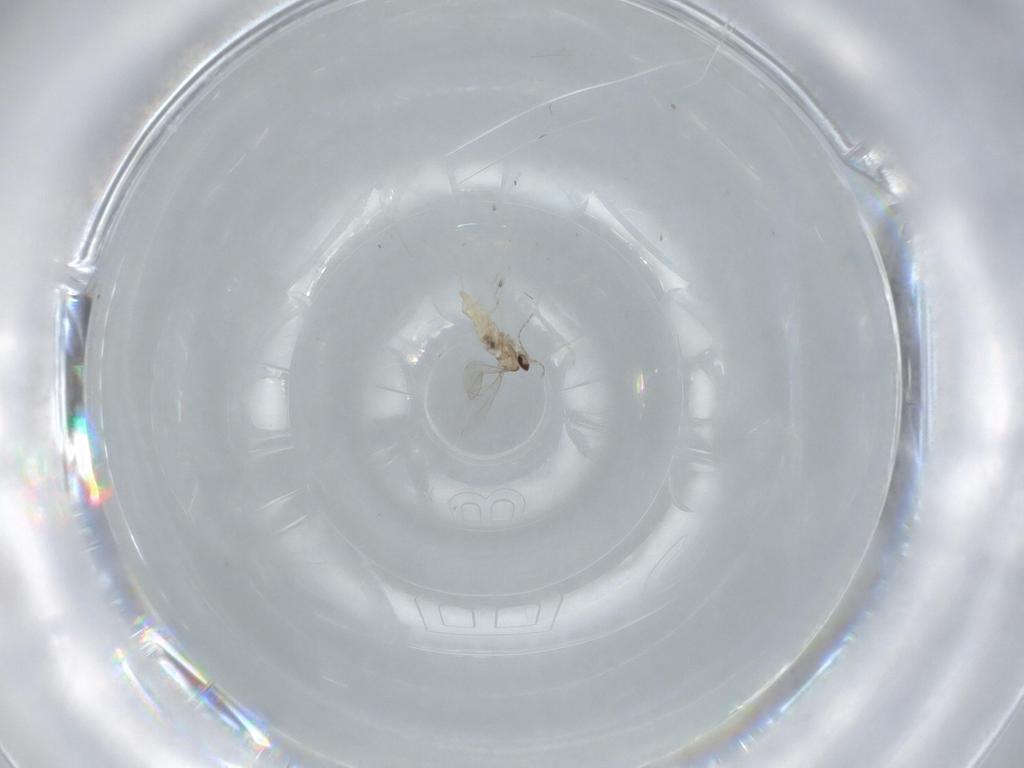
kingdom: Animalia
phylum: Arthropoda
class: Insecta
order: Diptera
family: Cecidomyiidae
